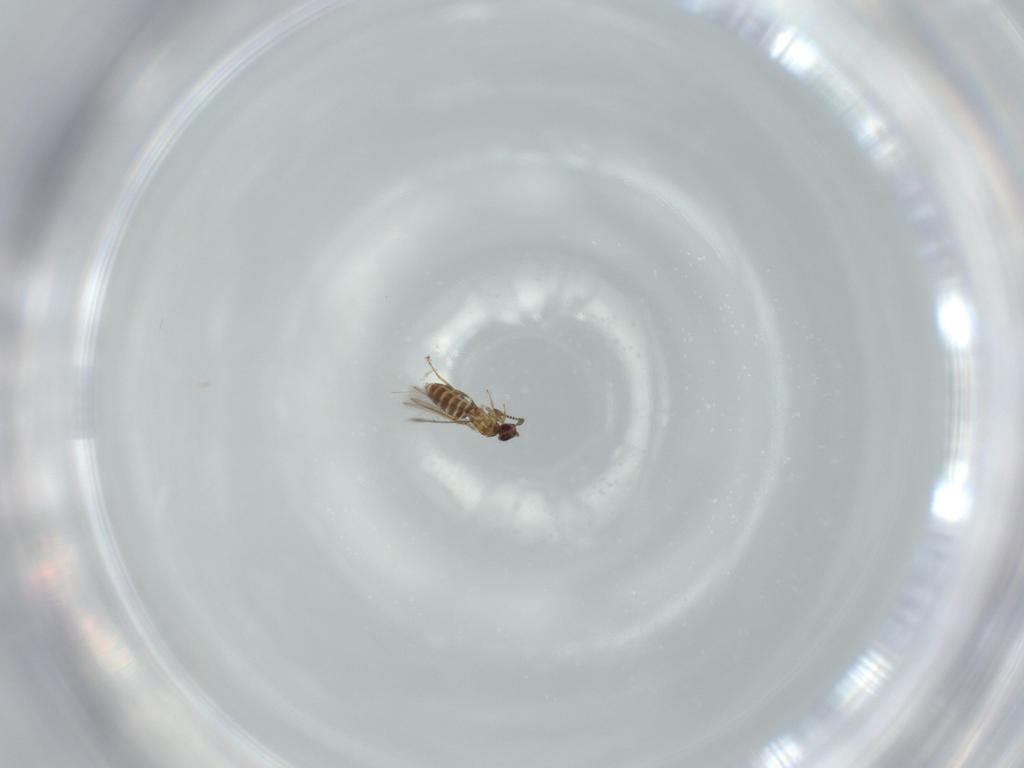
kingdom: Animalia
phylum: Arthropoda
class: Insecta
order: Hymenoptera
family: Mymaridae
